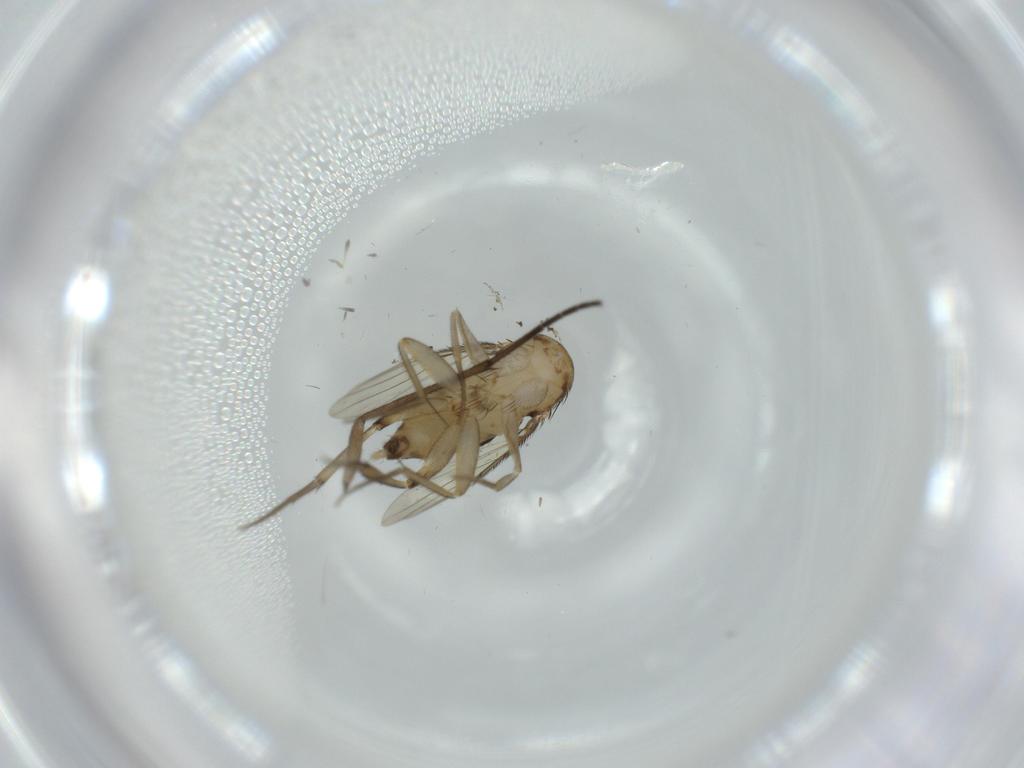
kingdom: Animalia
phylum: Arthropoda
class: Insecta
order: Diptera
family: Phoridae
